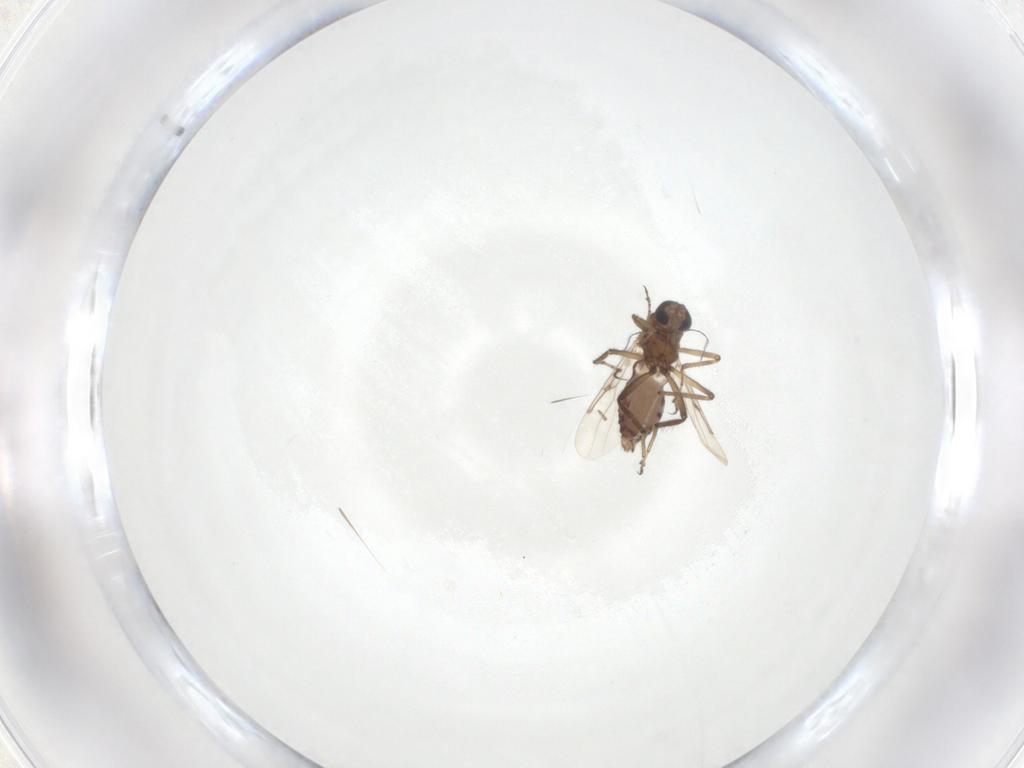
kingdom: Animalia
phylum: Arthropoda
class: Insecta
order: Diptera
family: Ceratopogonidae
